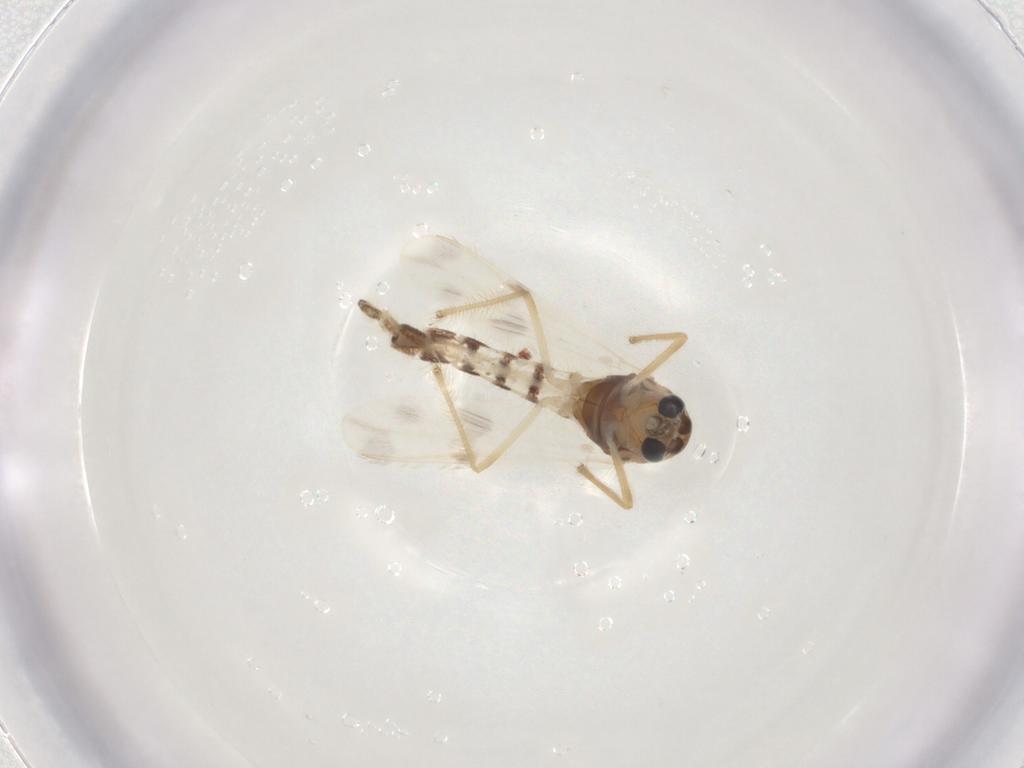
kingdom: Animalia
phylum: Arthropoda
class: Insecta
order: Diptera
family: Chironomidae
